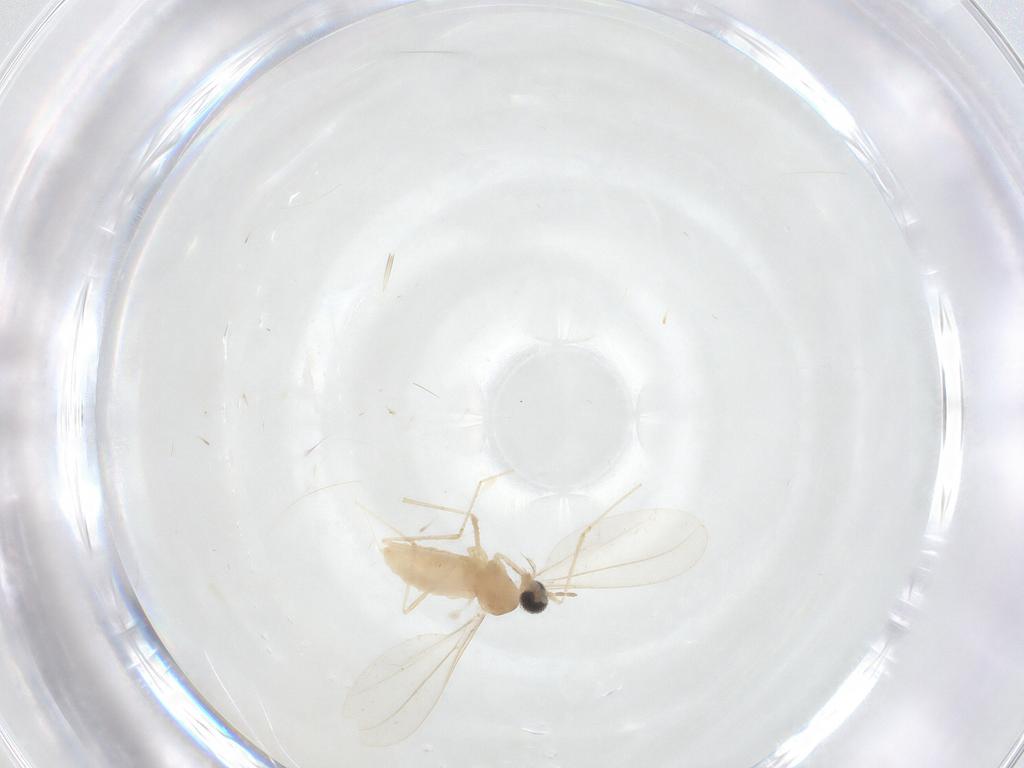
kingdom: Animalia
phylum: Arthropoda
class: Insecta
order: Diptera
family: Cecidomyiidae
